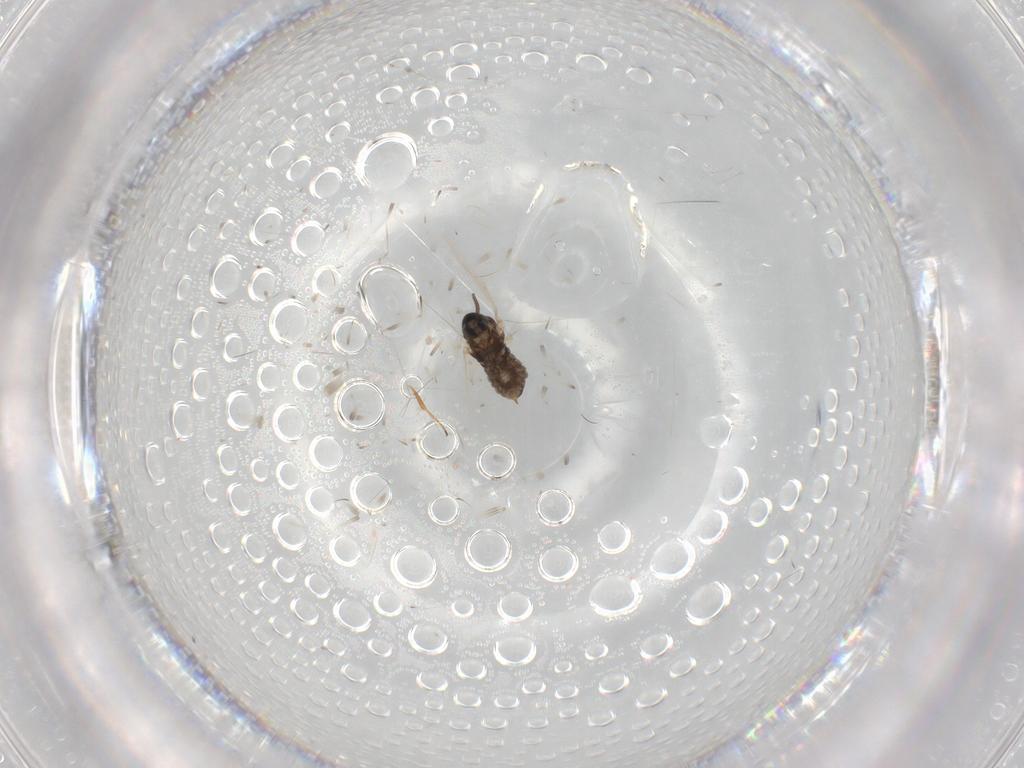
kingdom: Animalia
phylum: Arthropoda
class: Insecta
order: Diptera
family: Cecidomyiidae
